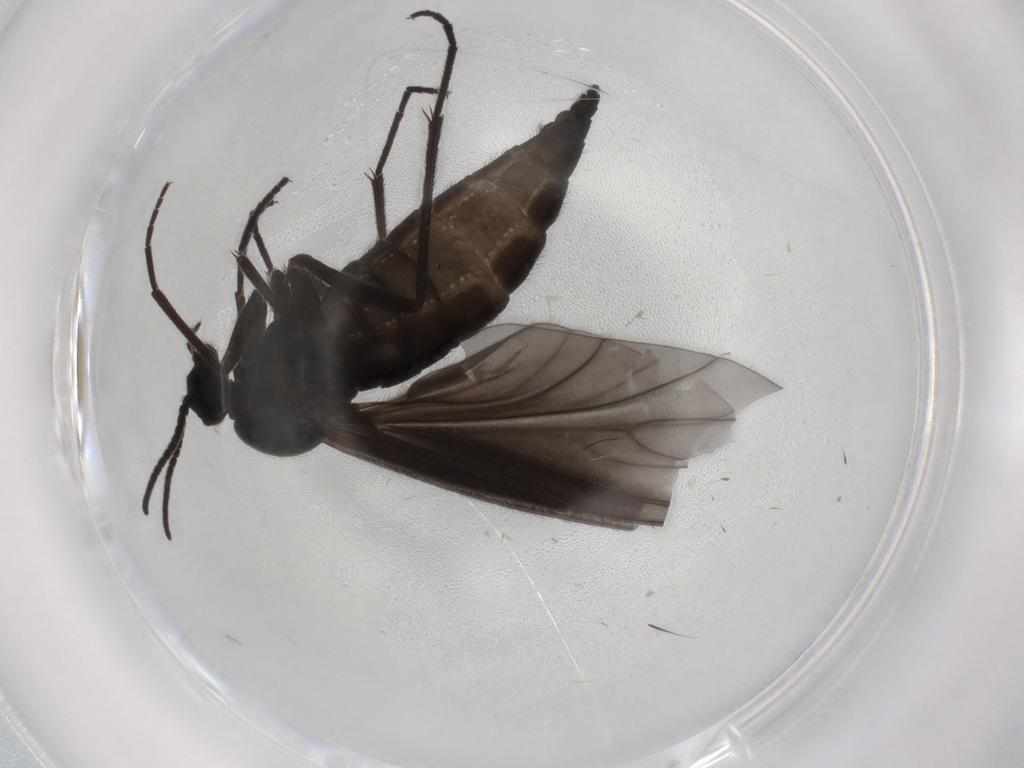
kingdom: Animalia
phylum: Arthropoda
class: Insecta
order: Diptera
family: Sciaridae
